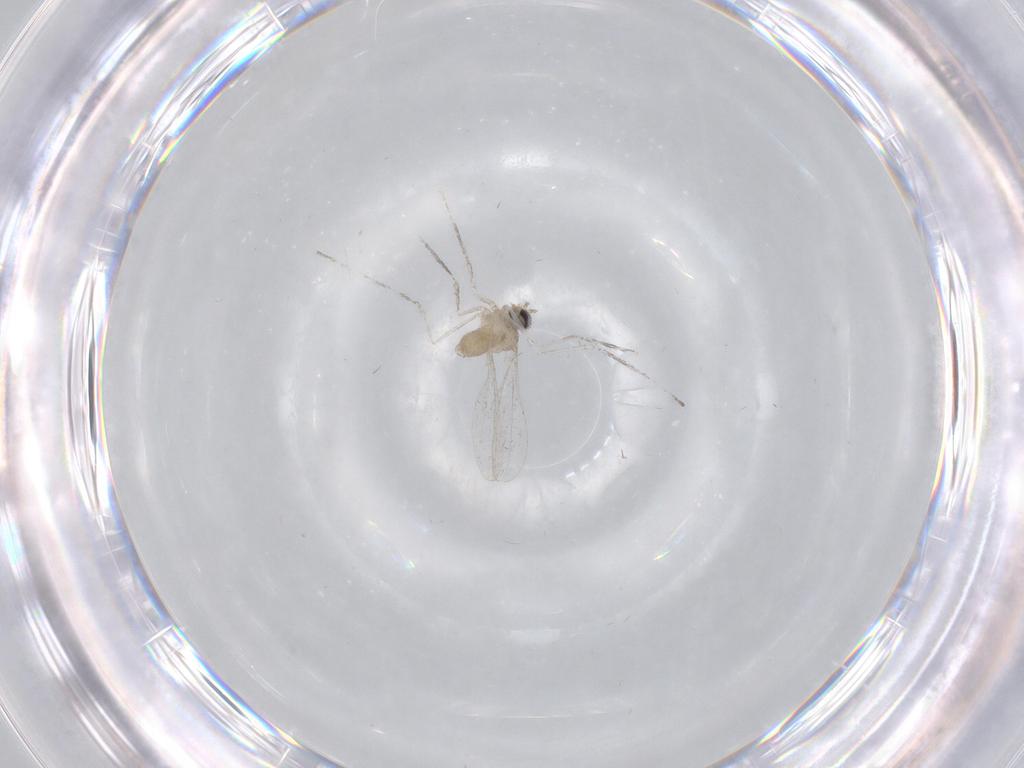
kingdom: Animalia
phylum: Arthropoda
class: Insecta
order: Diptera
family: Cecidomyiidae
